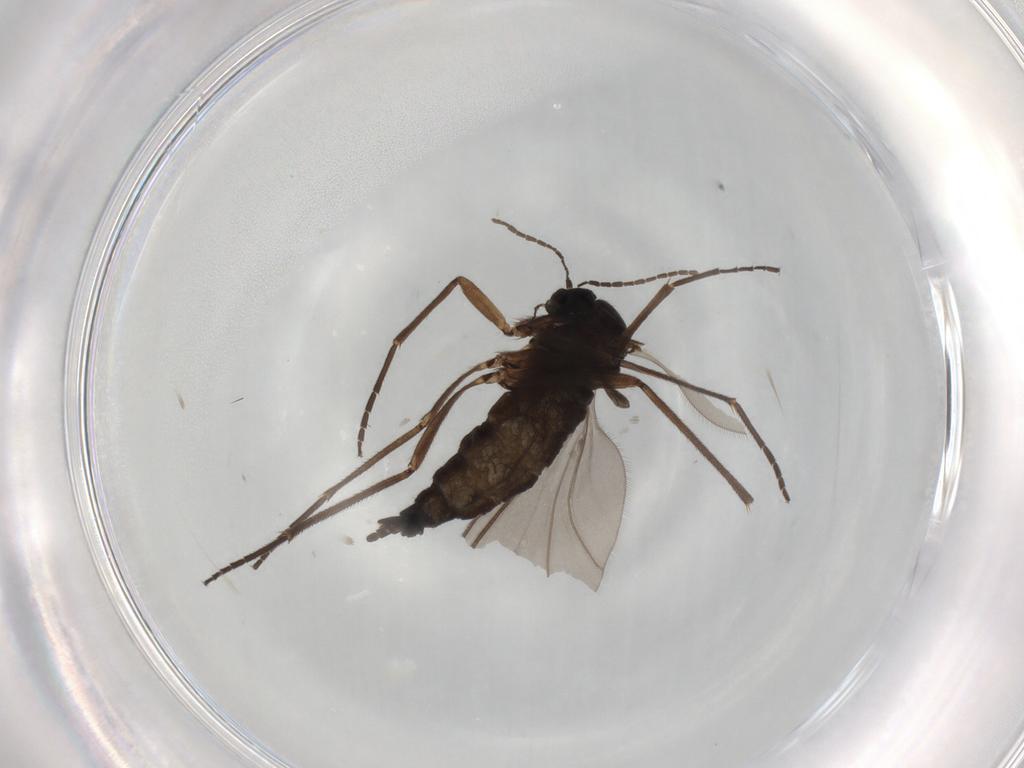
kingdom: Animalia
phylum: Arthropoda
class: Insecta
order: Diptera
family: Sciaridae
